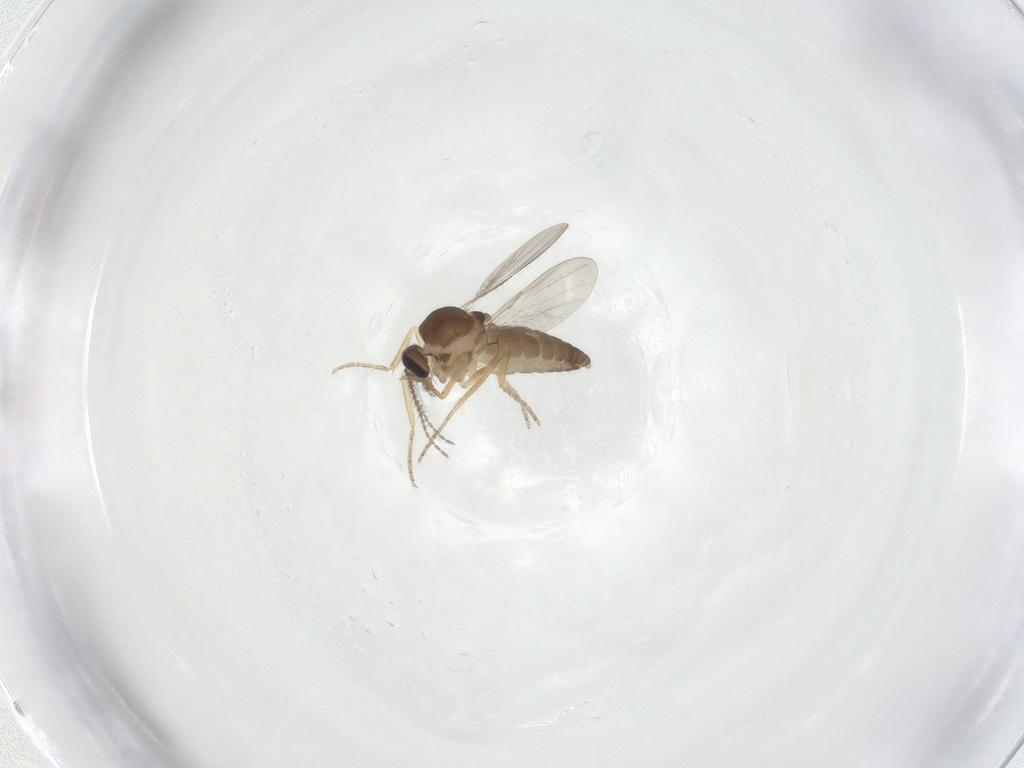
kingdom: Animalia
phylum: Arthropoda
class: Insecta
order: Diptera
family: Ceratopogonidae
